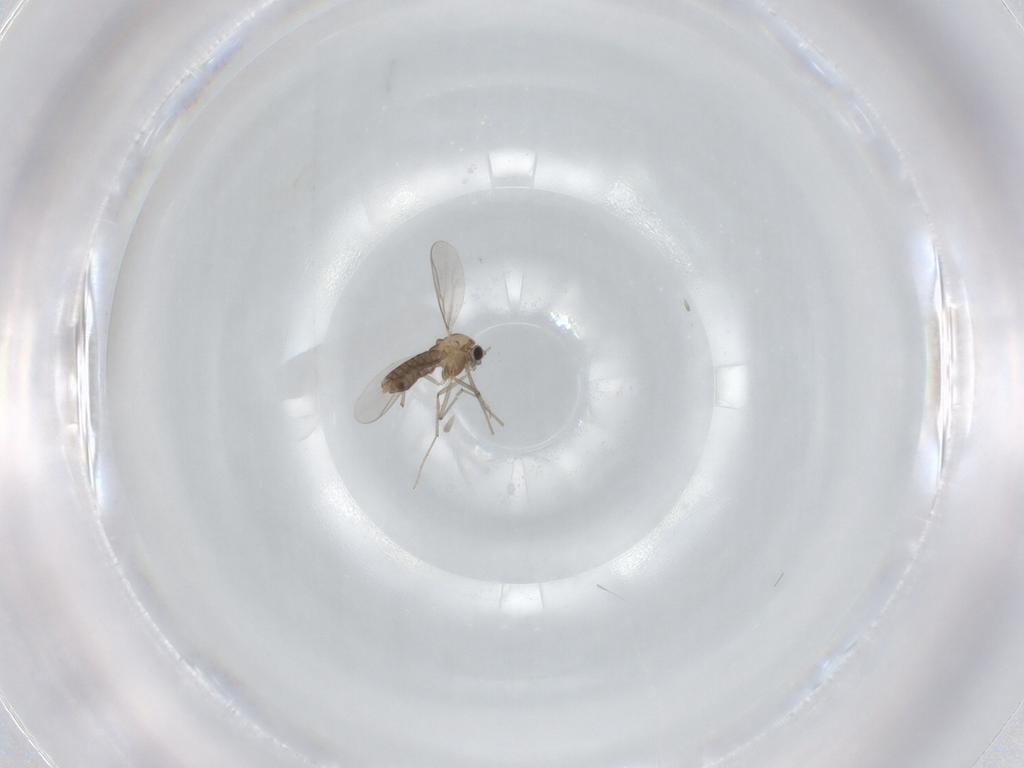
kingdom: Animalia
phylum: Arthropoda
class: Insecta
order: Diptera
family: Chironomidae
